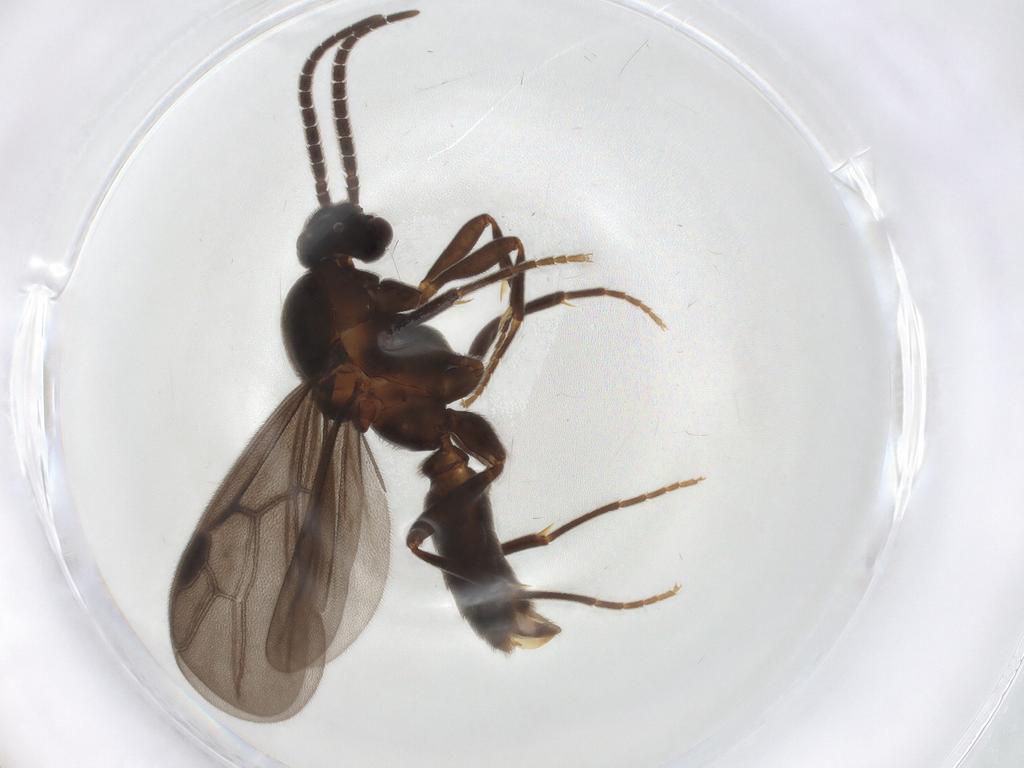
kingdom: Animalia
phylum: Arthropoda
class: Insecta
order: Hymenoptera
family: Formicidae
